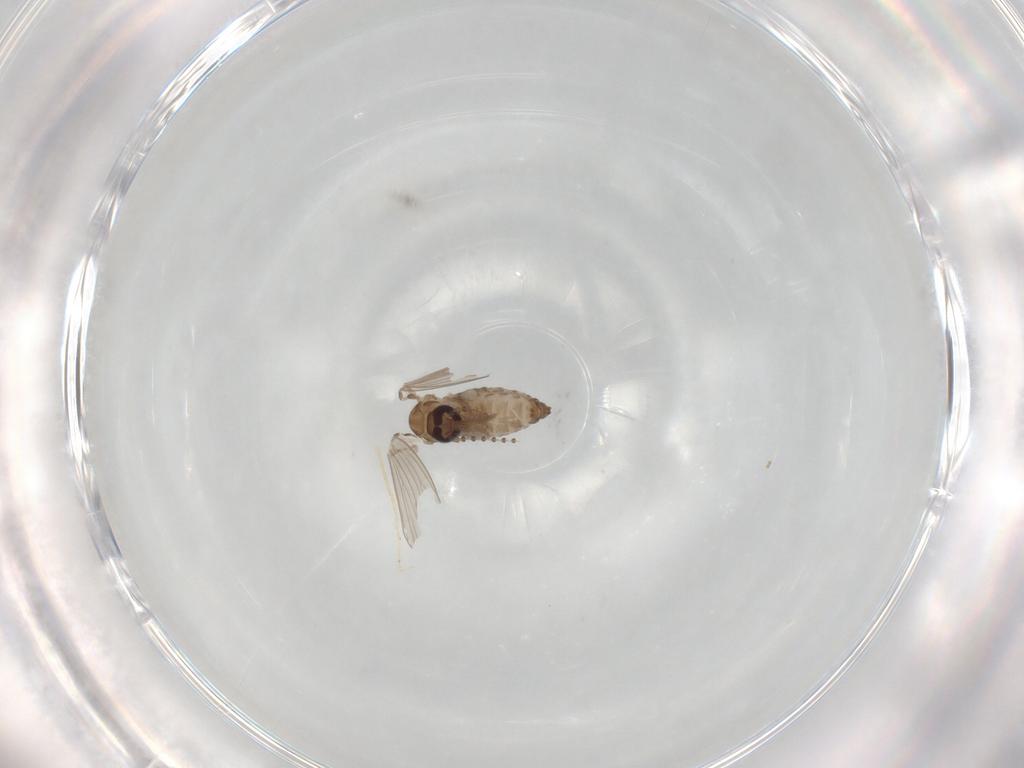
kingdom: Animalia
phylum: Arthropoda
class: Insecta
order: Diptera
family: Psychodidae
